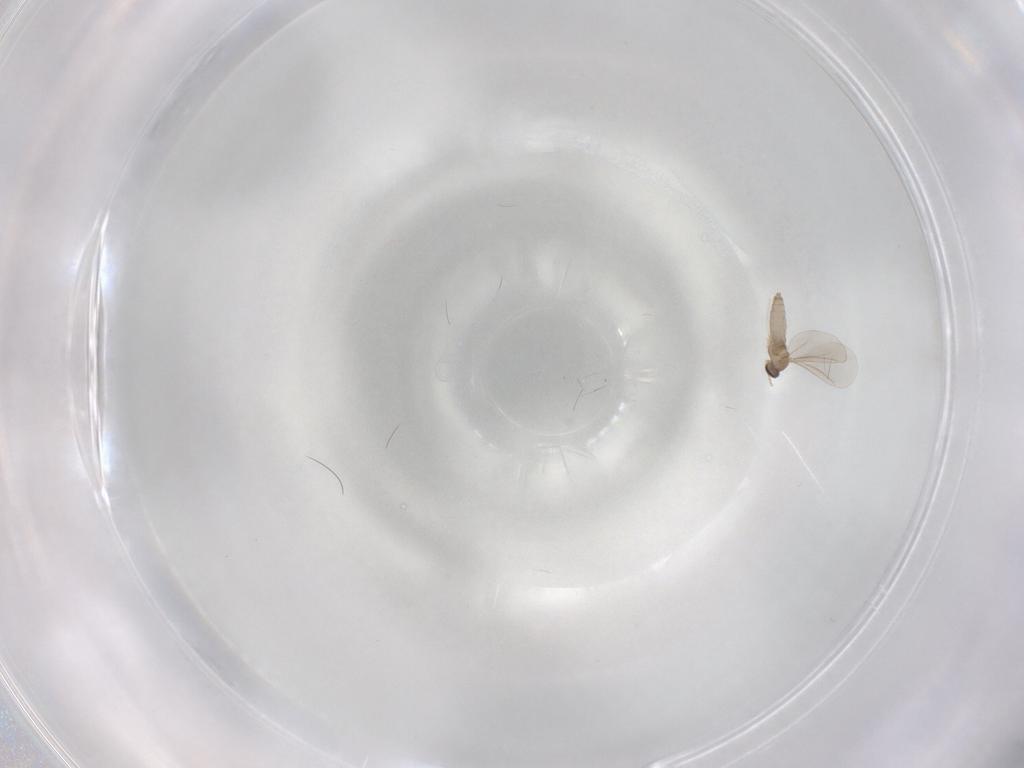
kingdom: Animalia
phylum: Arthropoda
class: Insecta
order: Diptera
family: Cecidomyiidae
